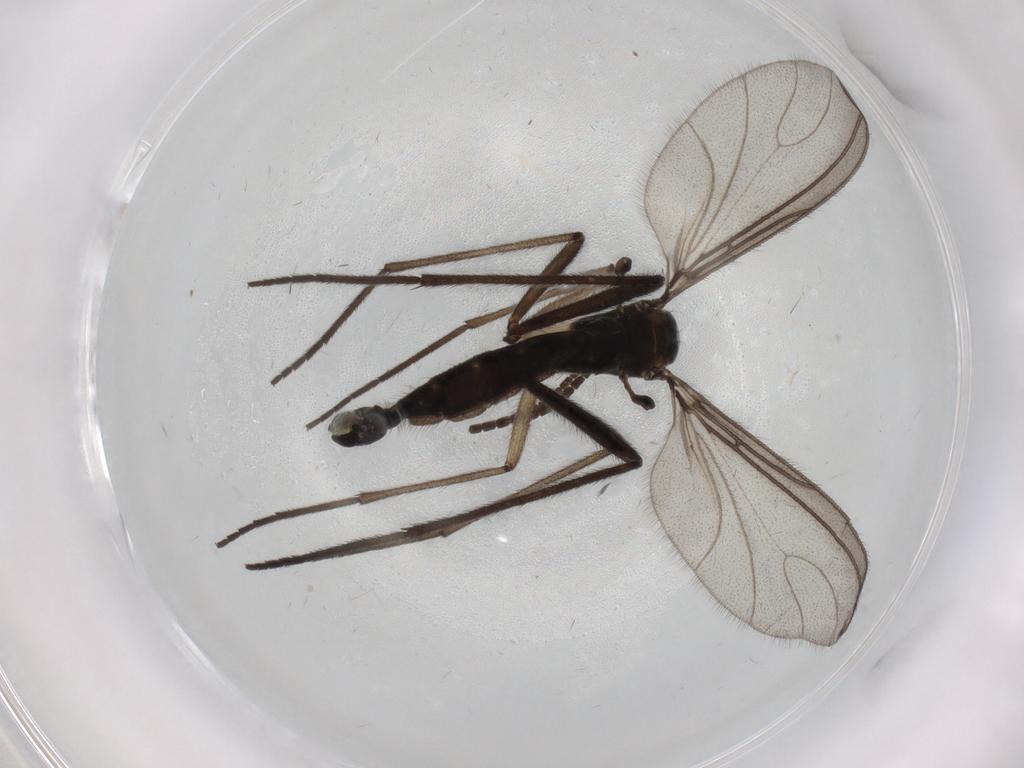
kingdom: Animalia
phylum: Arthropoda
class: Insecta
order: Diptera
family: Sciaridae
